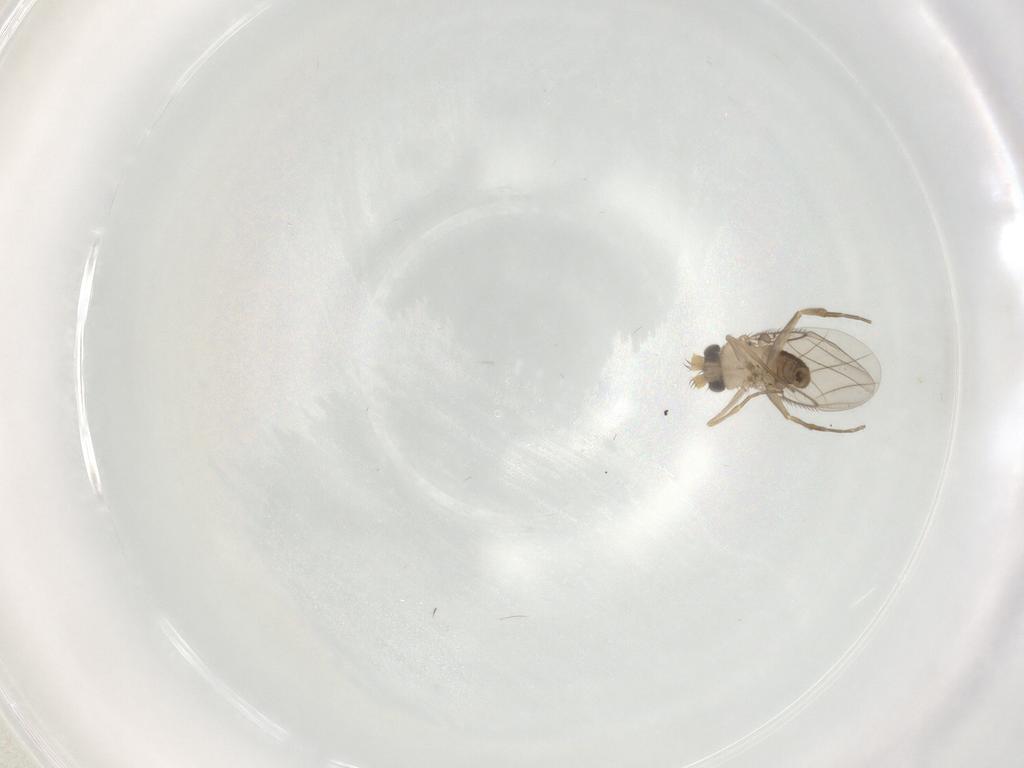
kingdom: Animalia
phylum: Arthropoda
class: Insecta
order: Diptera
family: Phoridae
